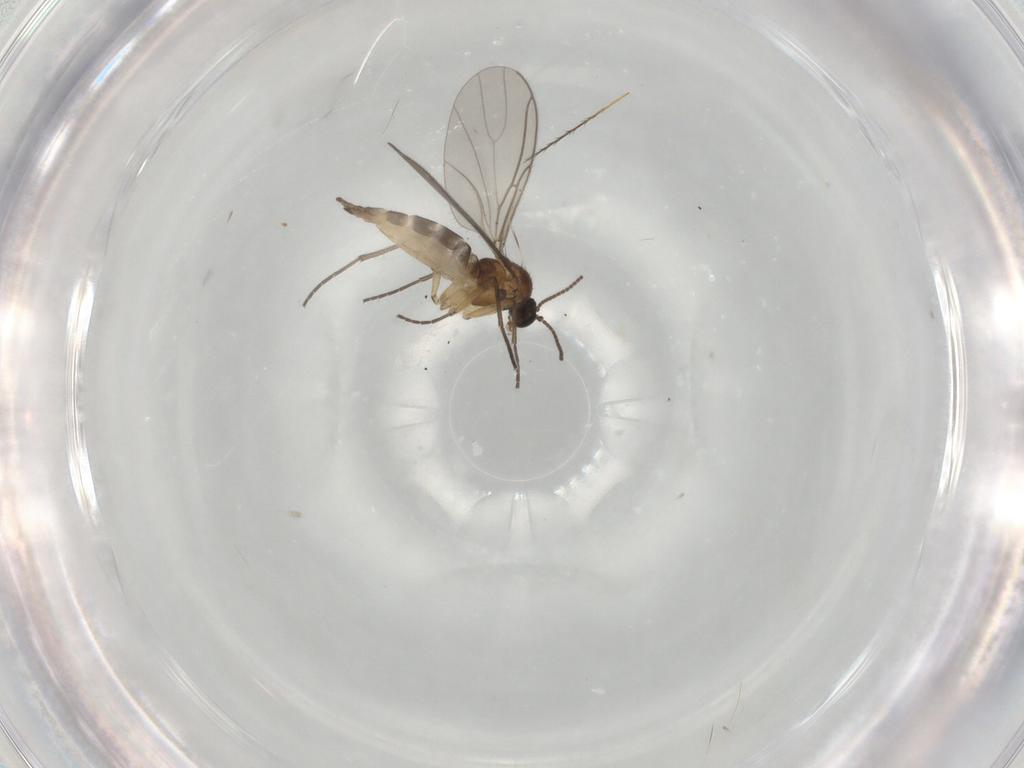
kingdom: Animalia
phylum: Arthropoda
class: Insecta
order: Diptera
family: Sciaridae
